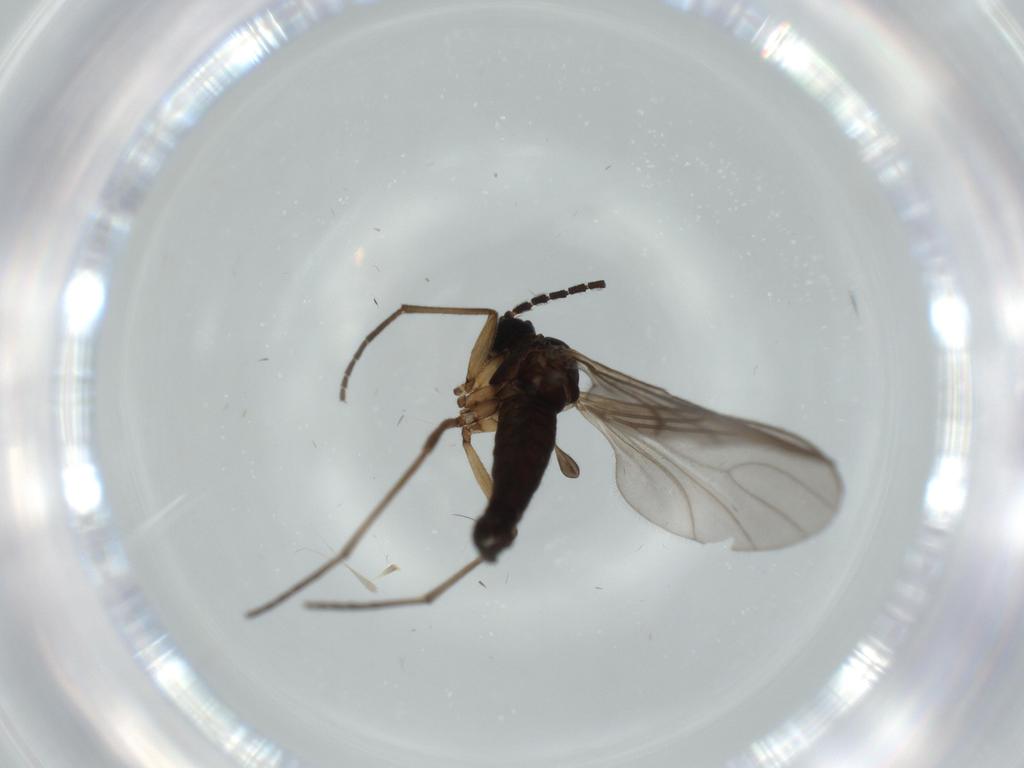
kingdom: Animalia
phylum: Arthropoda
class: Insecta
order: Diptera
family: Sciaridae
